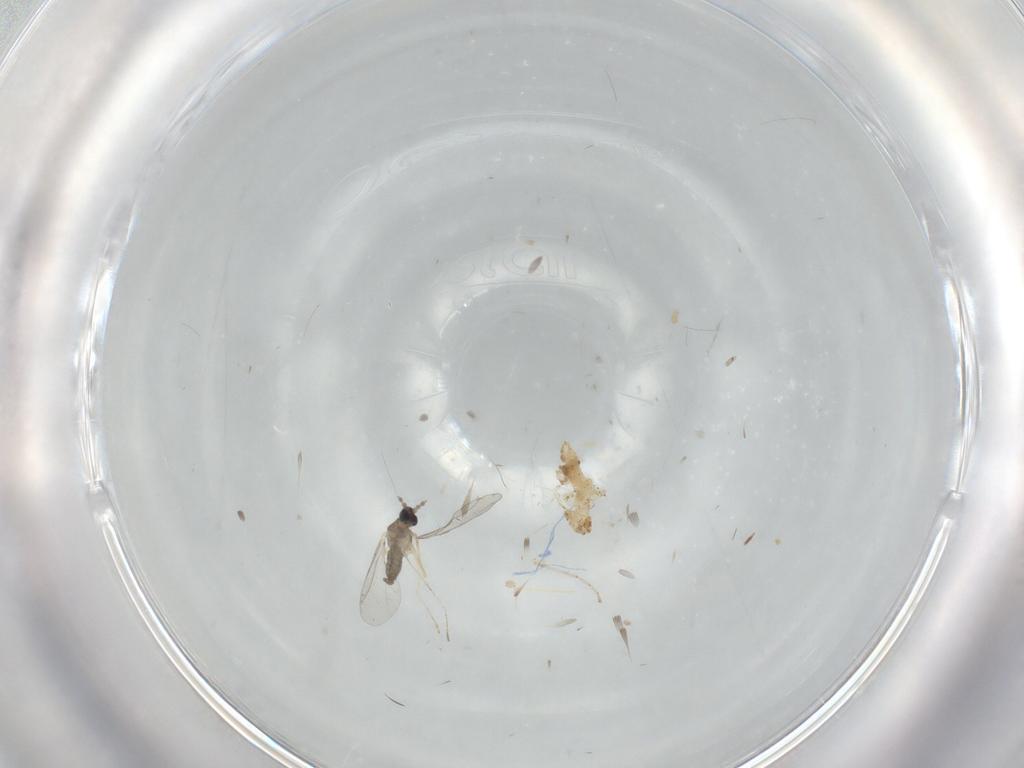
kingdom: Animalia
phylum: Arthropoda
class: Insecta
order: Diptera
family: Cecidomyiidae
